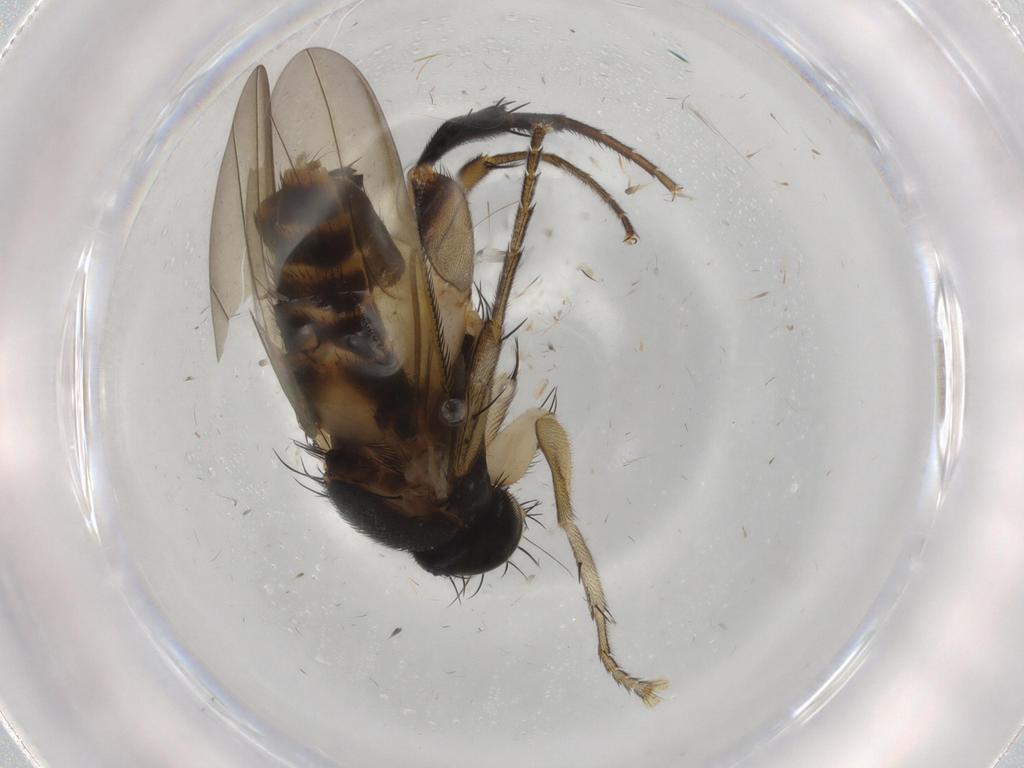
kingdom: Animalia
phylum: Arthropoda
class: Insecta
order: Diptera
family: Phoridae
